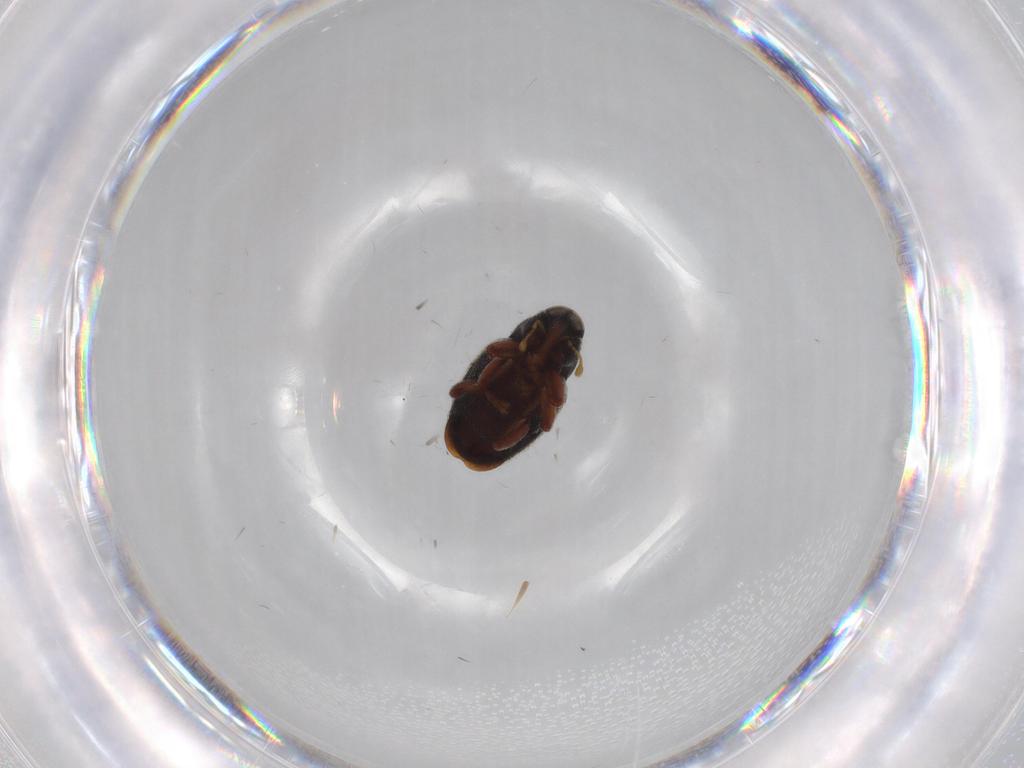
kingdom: Animalia
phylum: Arthropoda
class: Insecta
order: Coleoptera
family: Curculionidae
